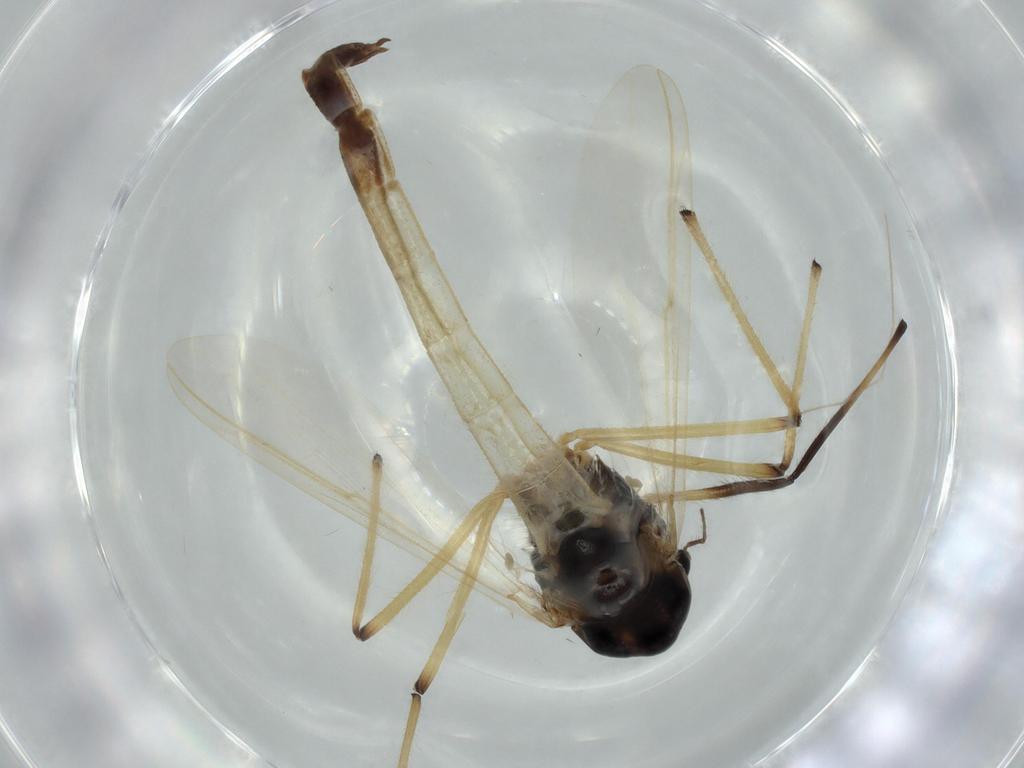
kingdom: Animalia
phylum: Arthropoda
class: Insecta
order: Diptera
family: Chironomidae
